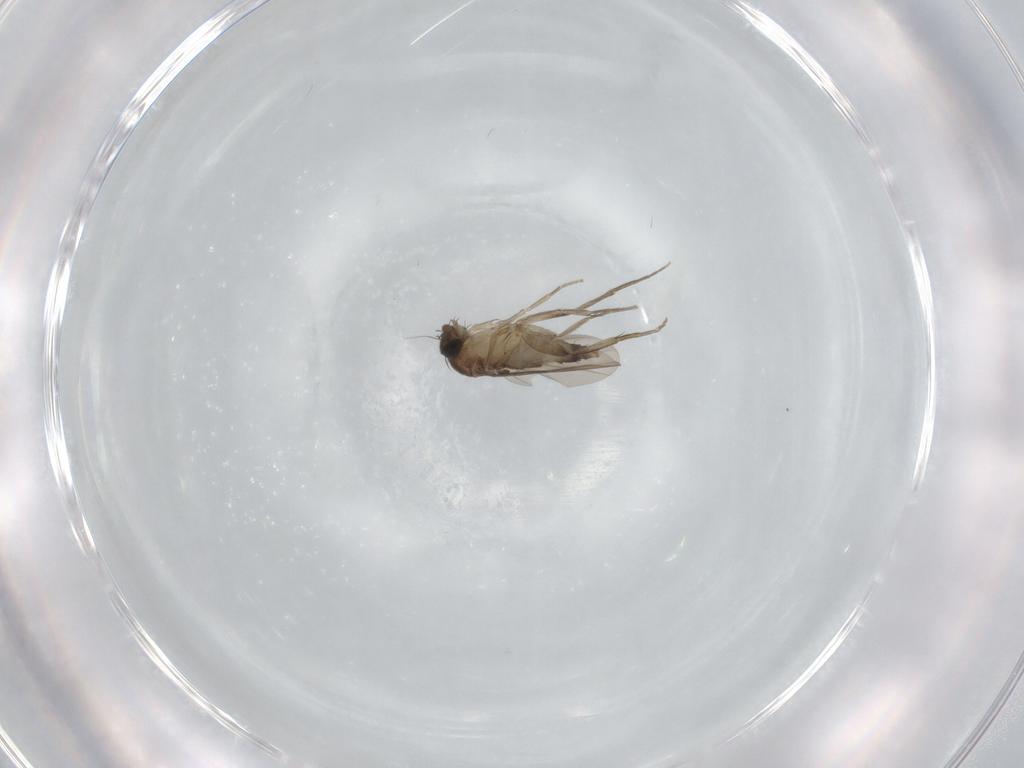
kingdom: Animalia
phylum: Arthropoda
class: Insecta
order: Diptera
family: Phoridae
